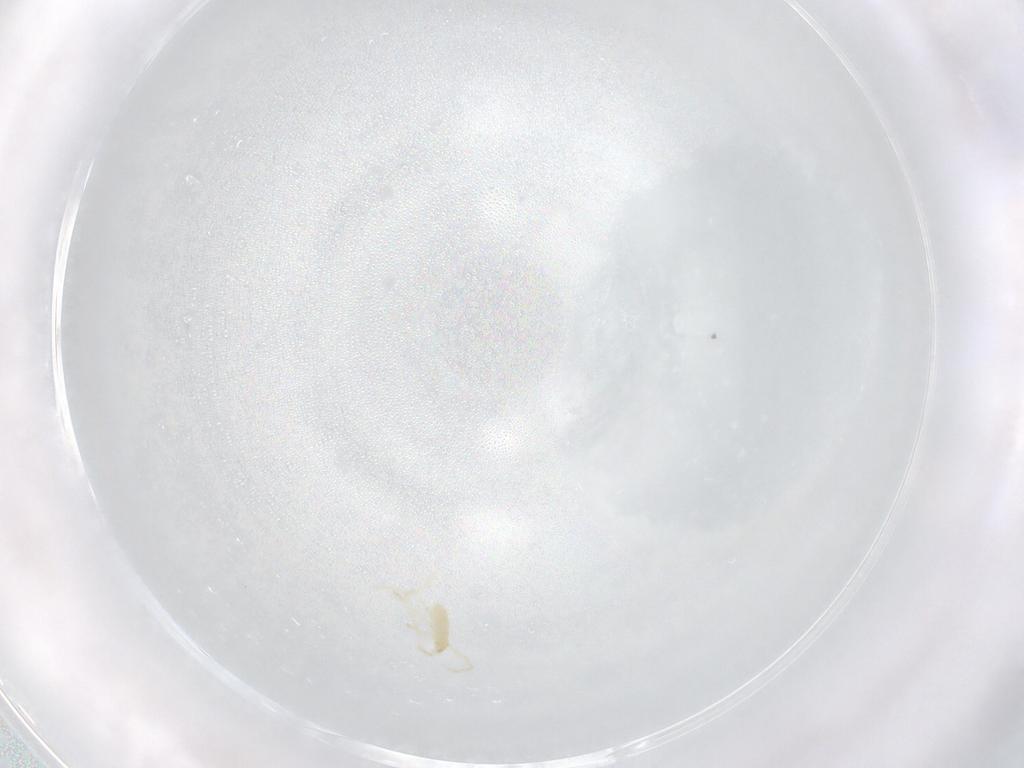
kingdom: Animalia
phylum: Arthropoda
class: Arachnida
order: Trombidiformes
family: Erythraeidae
